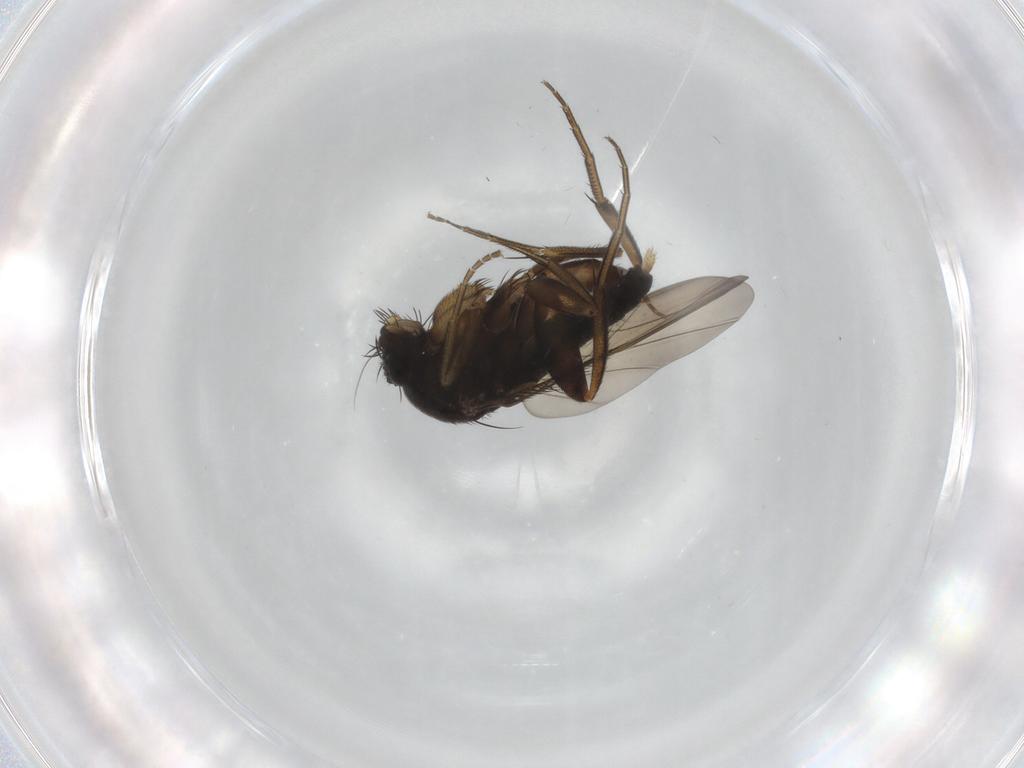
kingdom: Animalia
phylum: Arthropoda
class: Insecta
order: Diptera
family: Phoridae
